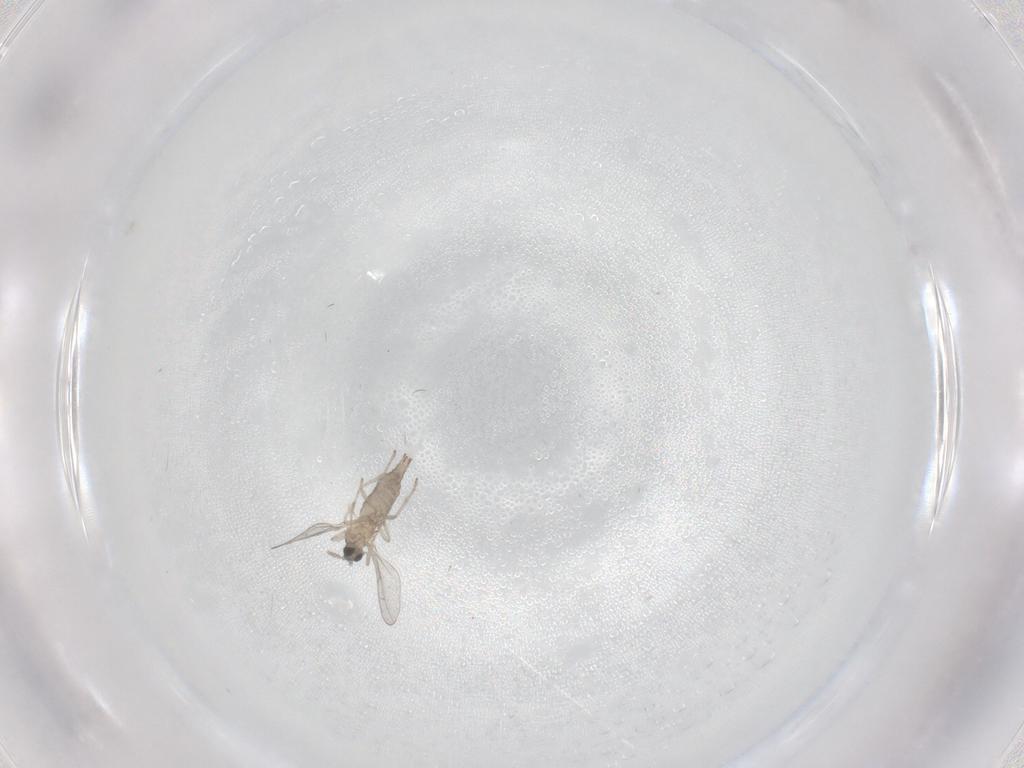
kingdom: Animalia
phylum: Arthropoda
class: Insecta
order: Diptera
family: Cecidomyiidae
